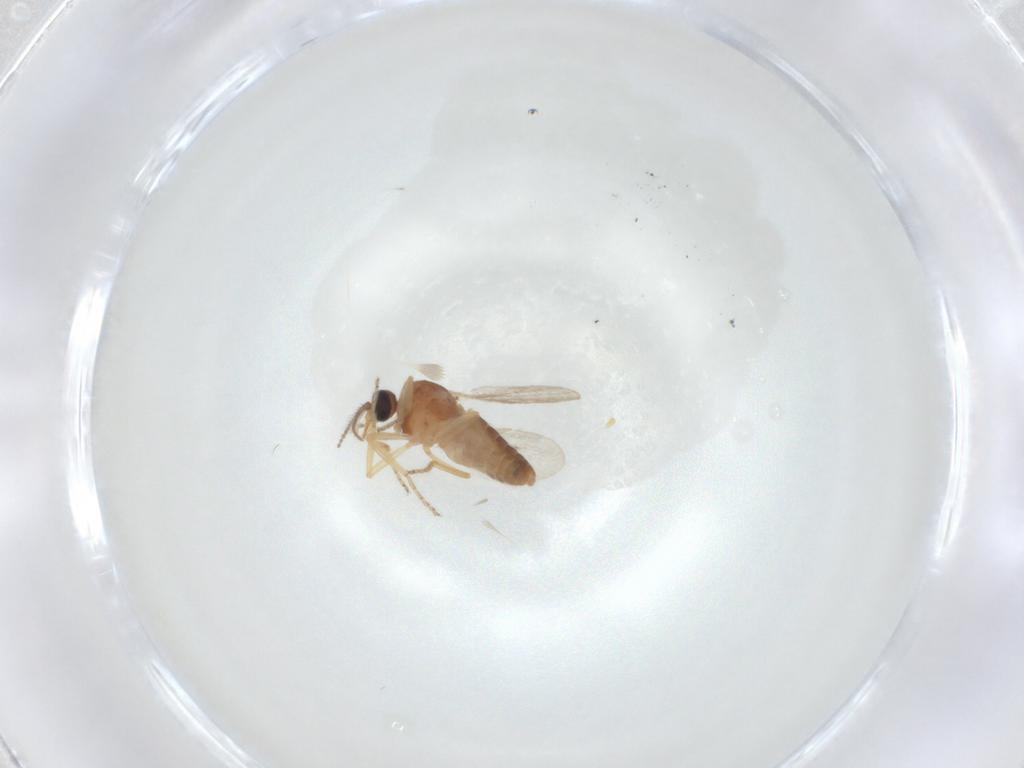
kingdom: Animalia
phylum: Arthropoda
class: Insecta
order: Diptera
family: Ceratopogonidae
